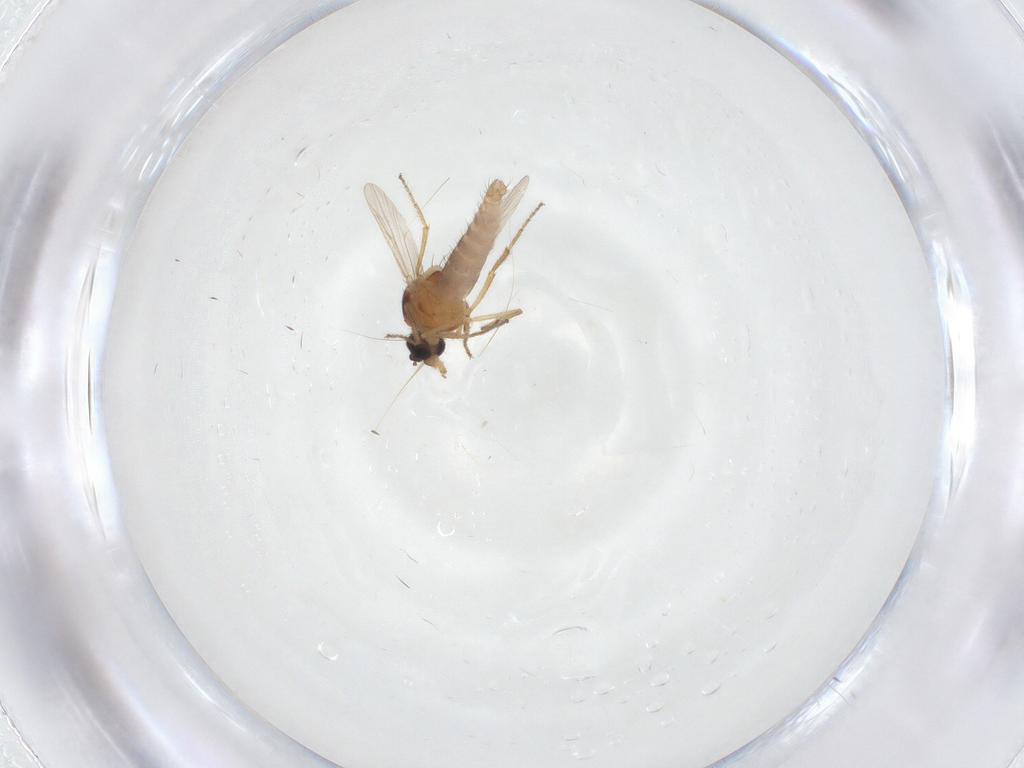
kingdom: Animalia
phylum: Arthropoda
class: Insecta
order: Diptera
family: Ceratopogonidae
